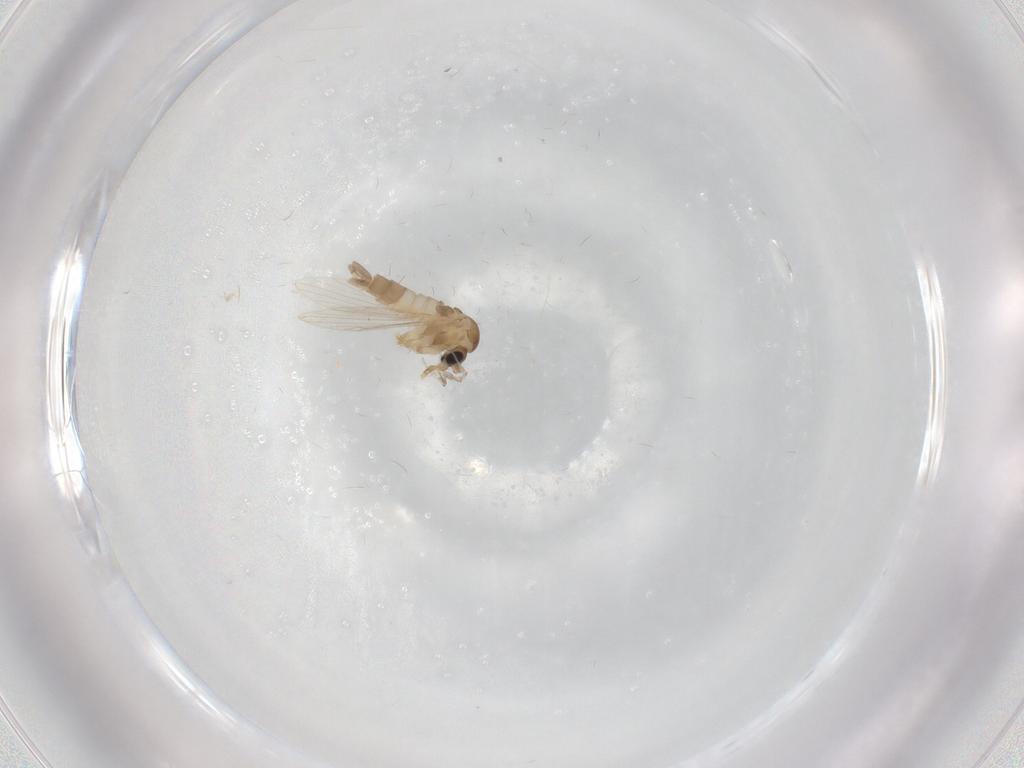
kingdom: Animalia
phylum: Arthropoda
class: Insecta
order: Diptera
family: Psychodidae
